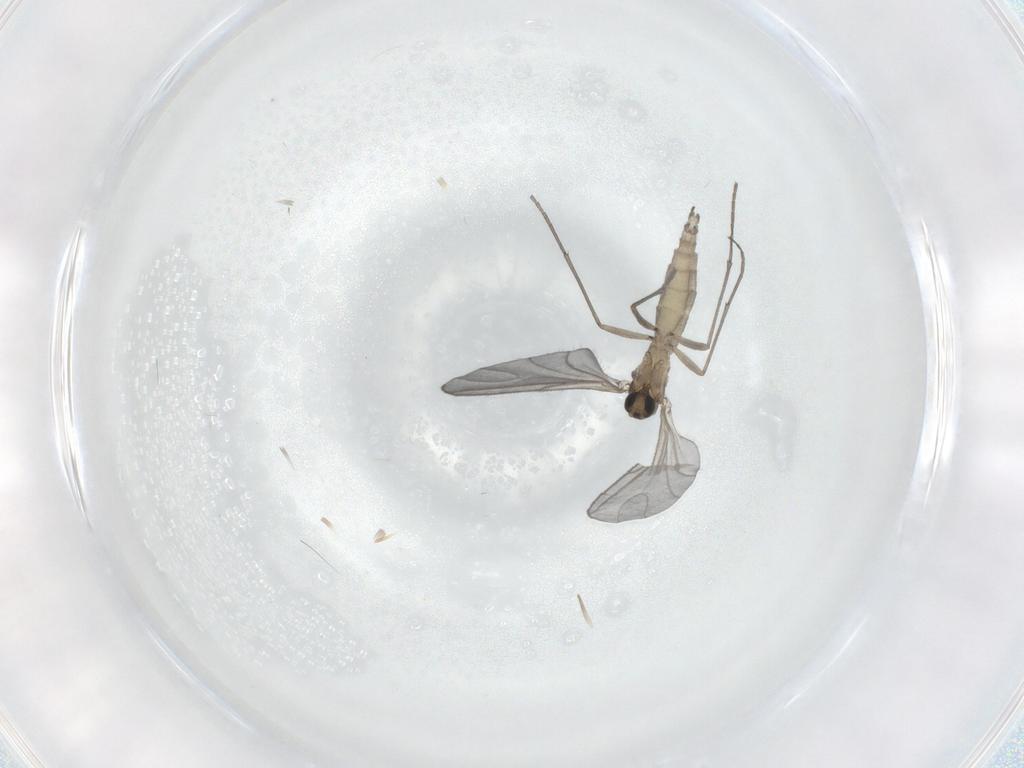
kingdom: Animalia
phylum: Arthropoda
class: Insecta
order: Diptera
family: Sciaridae
